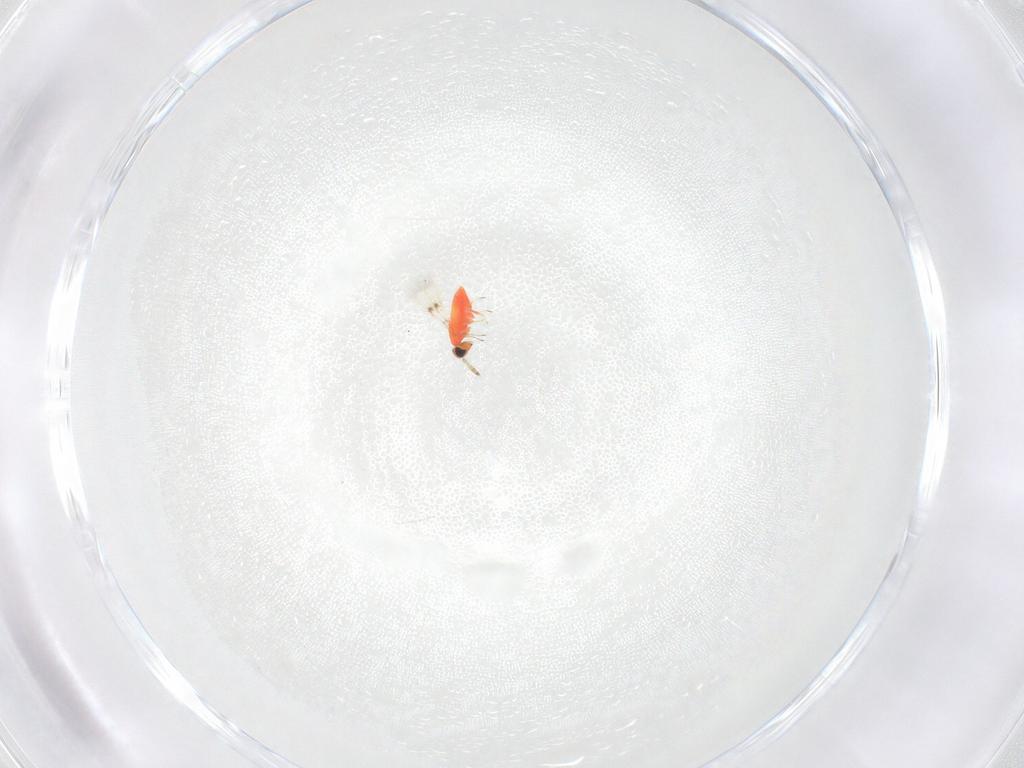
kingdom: Animalia
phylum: Arthropoda
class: Insecta
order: Hymenoptera
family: Trichogrammatidae
